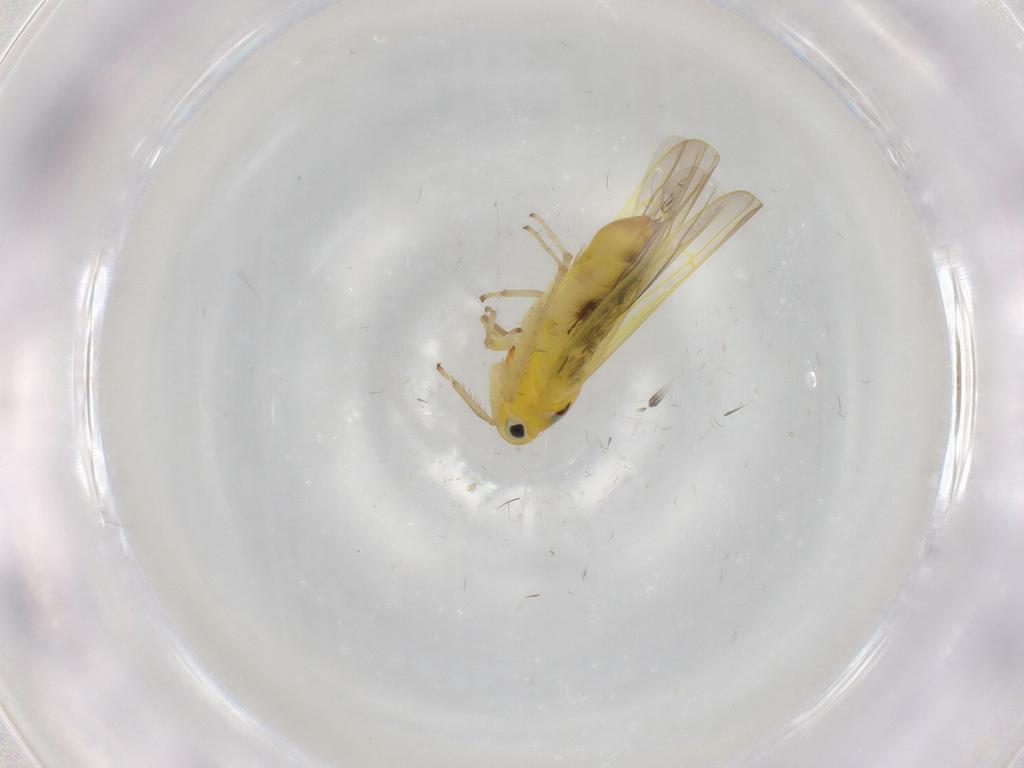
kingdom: Animalia
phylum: Arthropoda
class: Insecta
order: Hemiptera
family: Cicadellidae
